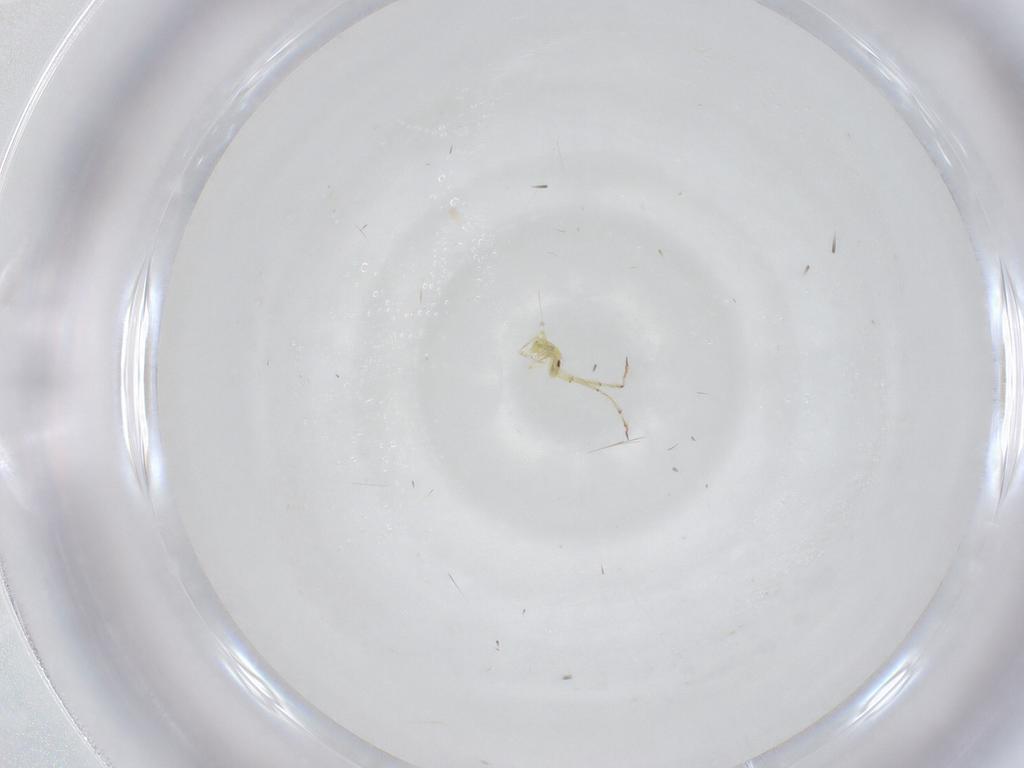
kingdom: Animalia
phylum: Arthropoda
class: Collembola
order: Entomobryomorpha
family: Paronellidae
